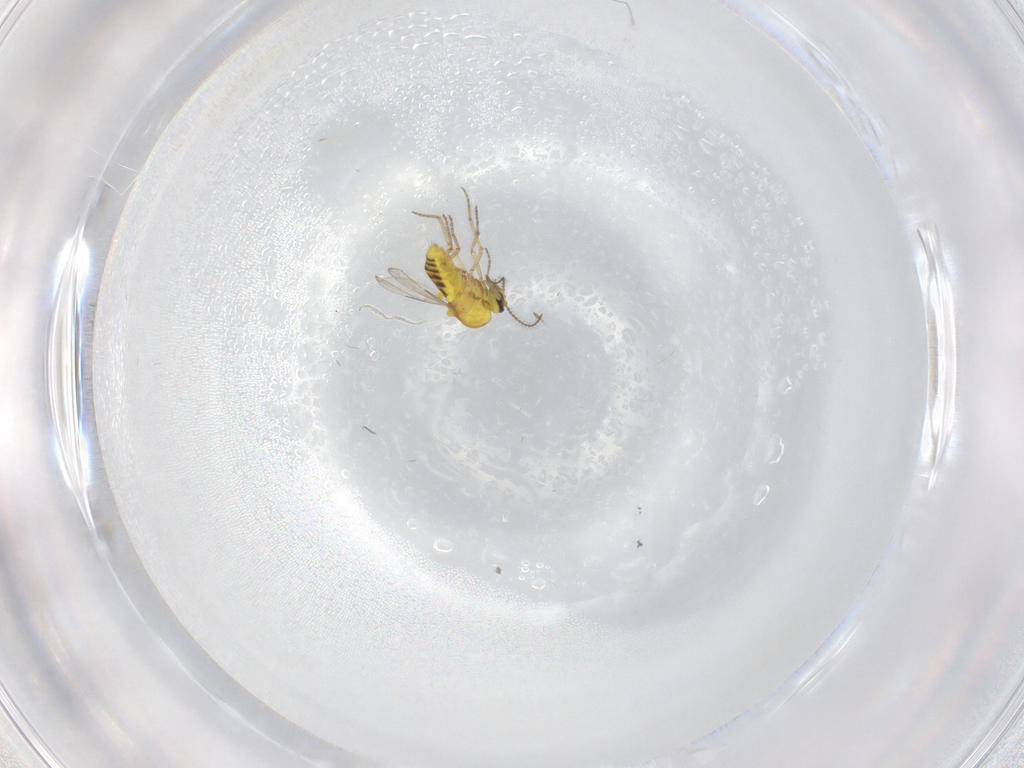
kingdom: Animalia
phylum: Arthropoda
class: Insecta
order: Diptera
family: Ceratopogonidae
